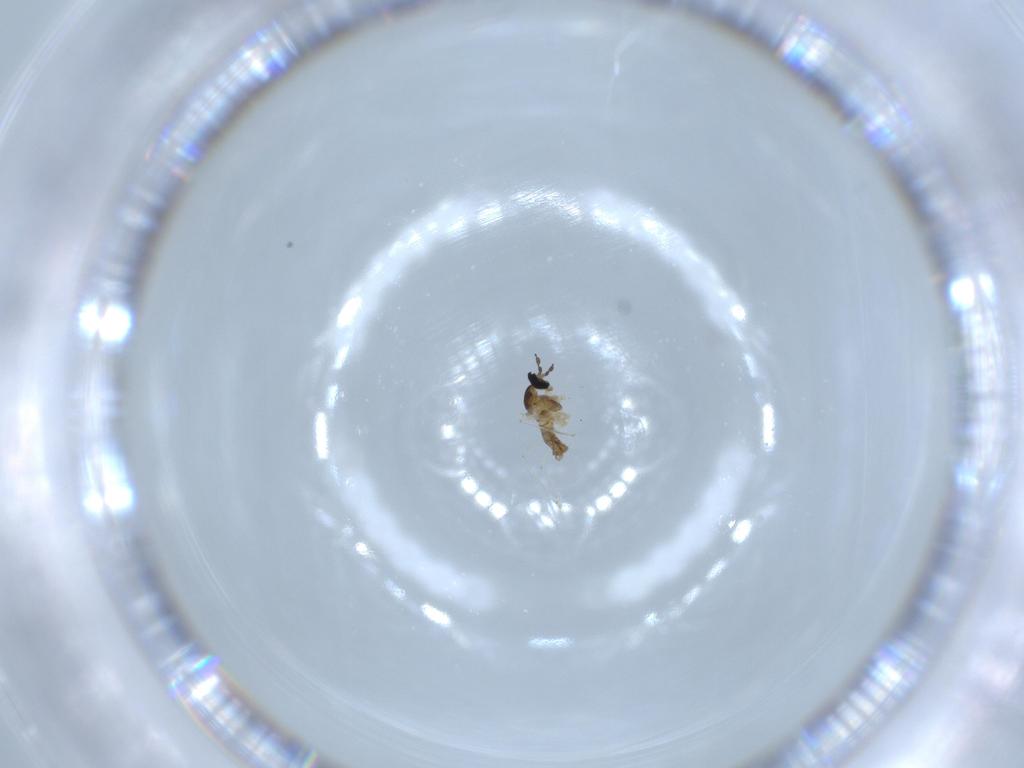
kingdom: Animalia
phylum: Arthropoda
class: Insecta
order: Diptera
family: Cecidomyiidae
